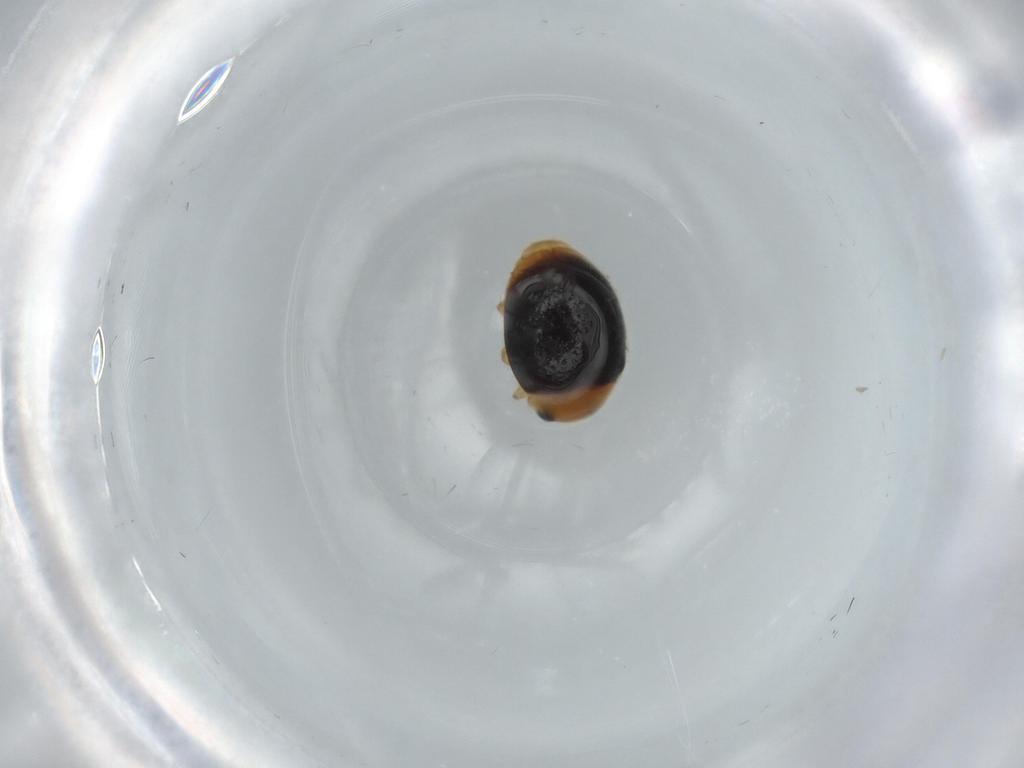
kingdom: Animalia
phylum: Arthropoda
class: Insecta
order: Coleoptera
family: Coccinellidae
